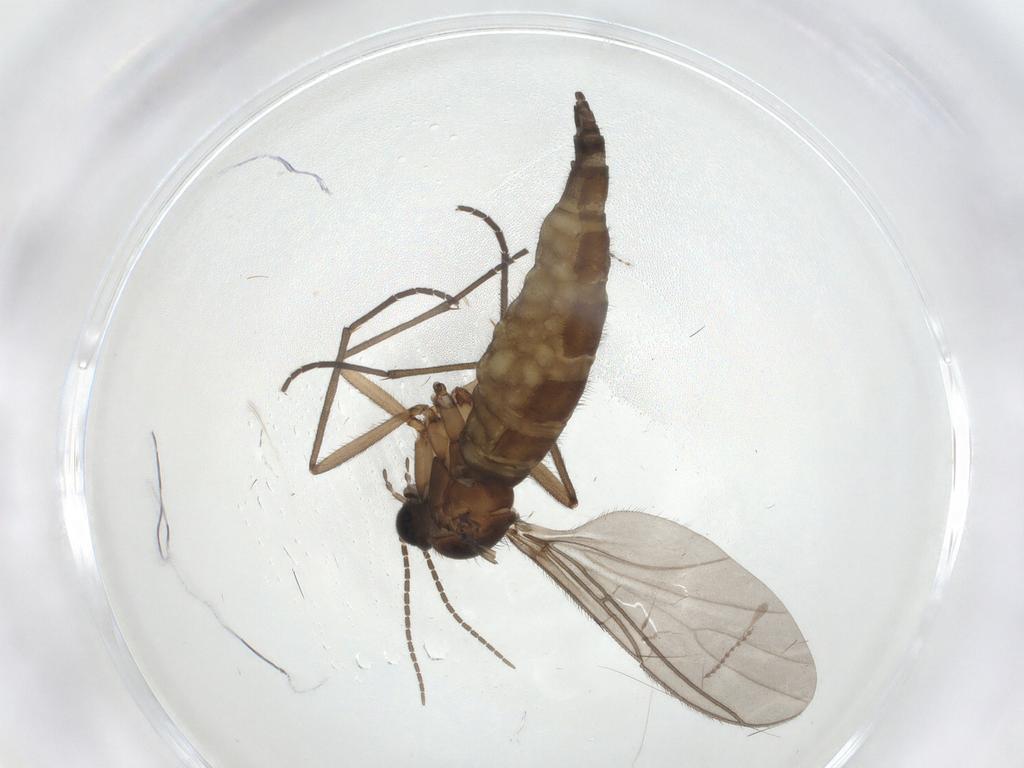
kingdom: Animalia
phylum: Arthropoda
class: Insecta
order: Diptera
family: Sciaridae
